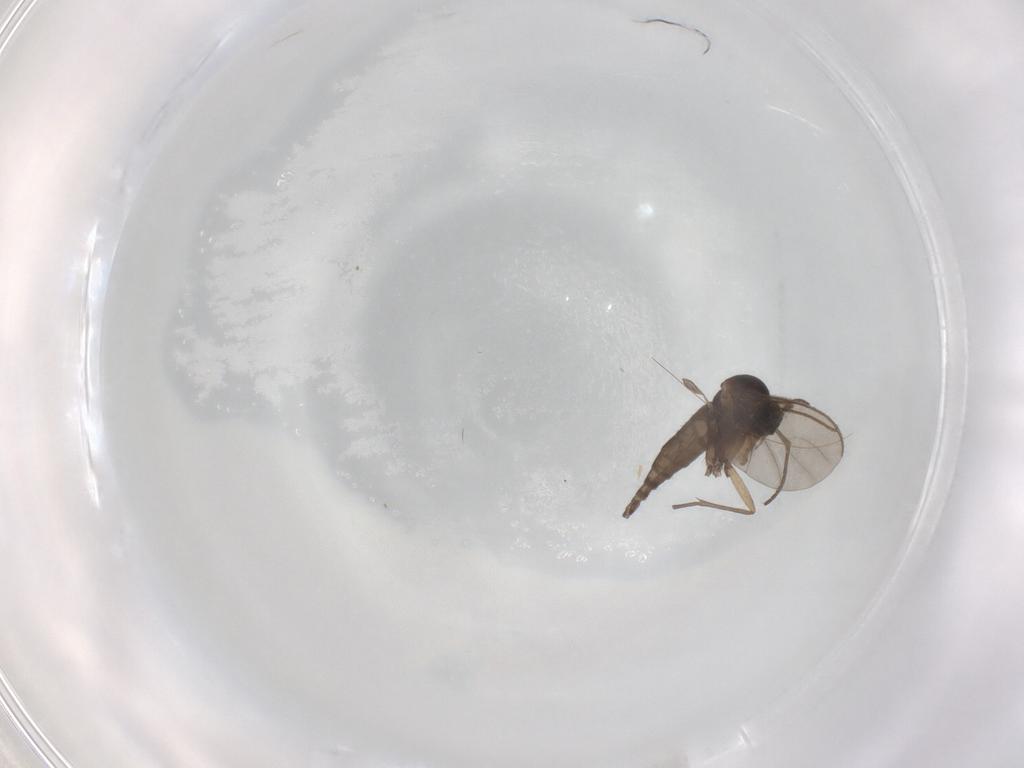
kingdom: Animalia
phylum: Arthropoda
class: Insecta
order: Diptera
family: Sciaridae
